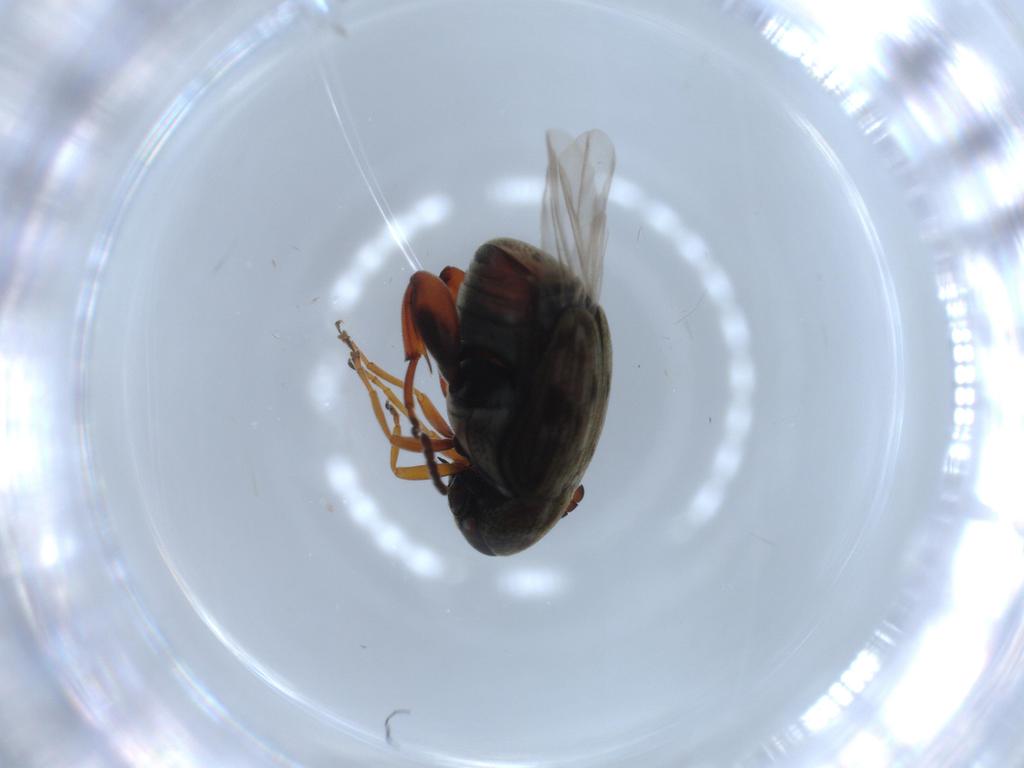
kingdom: Animalia
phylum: Arthropoda
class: Insecta
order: Coleoptera
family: Chrysomelidae
